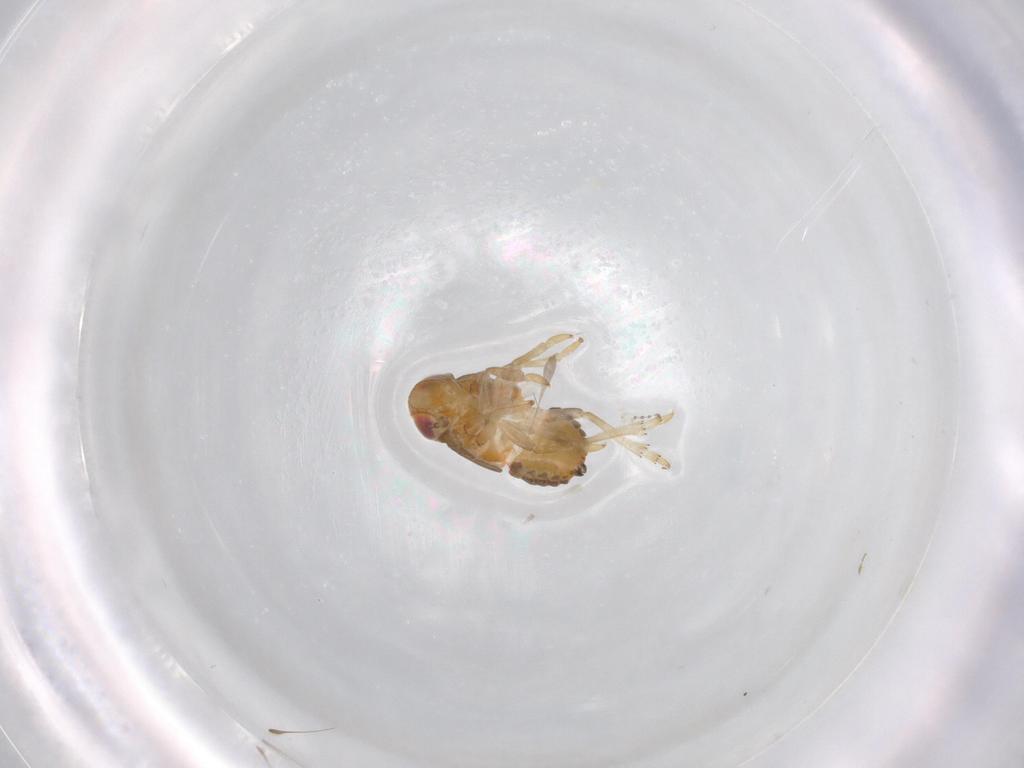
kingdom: Animalia
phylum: Arthropoda
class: Insecta
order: Hemiptera
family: Issidae
